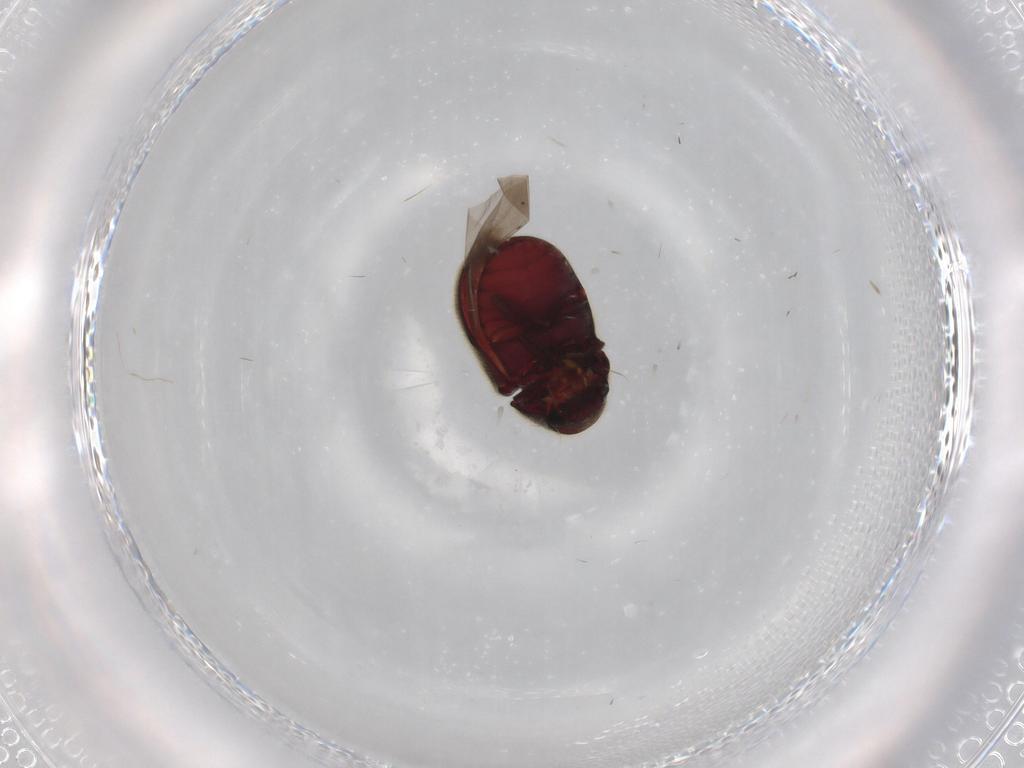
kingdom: Animalia
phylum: Arthropoda
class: Insecta
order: Coleoptera
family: Ptinidae
